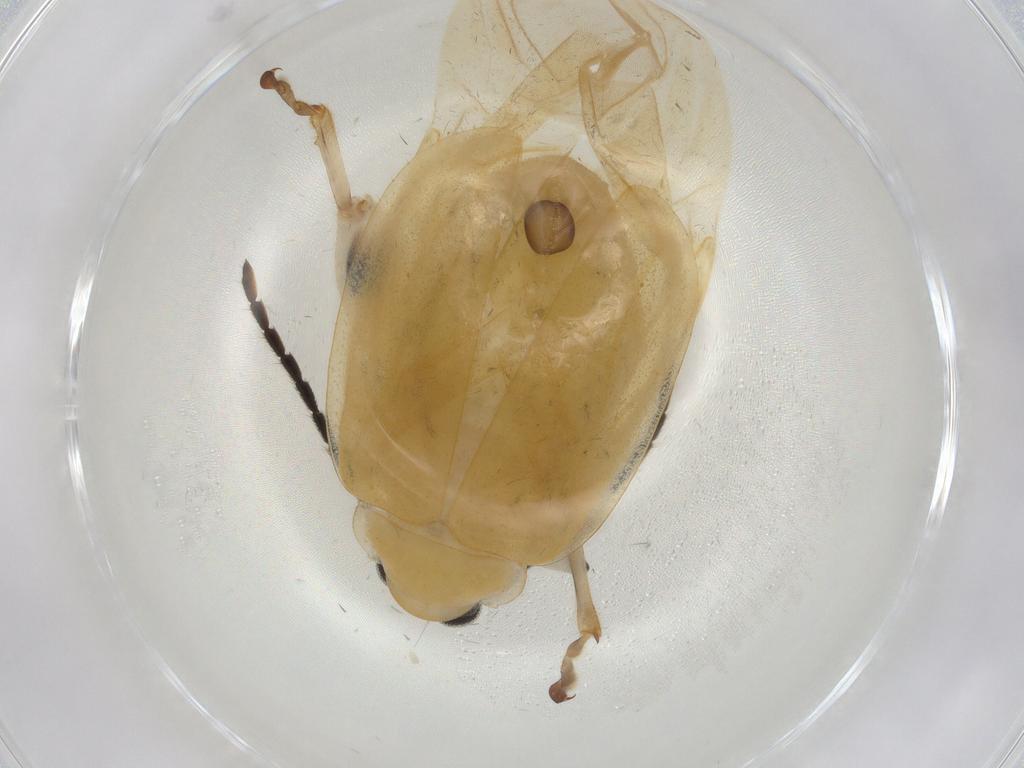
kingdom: Animalia
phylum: Arthropoda
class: Insecta
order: Coleoptera
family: Chrysomelidae
